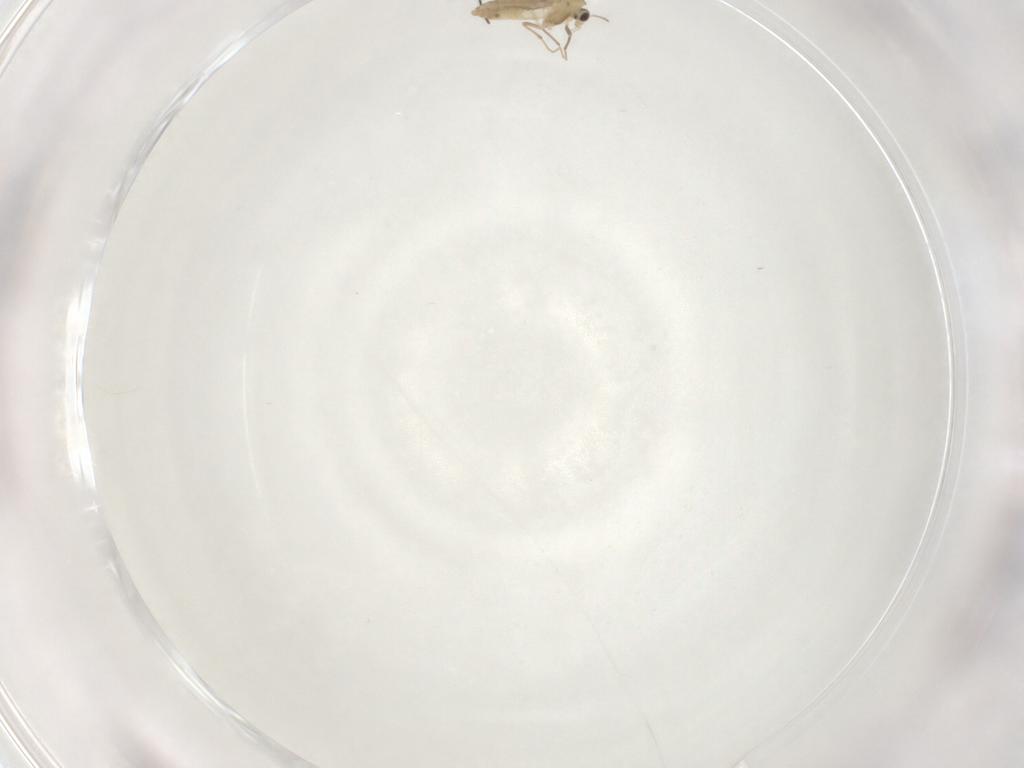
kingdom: Animalia
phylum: Arthropoda
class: Insecta
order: Diptera
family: Chironomidae
